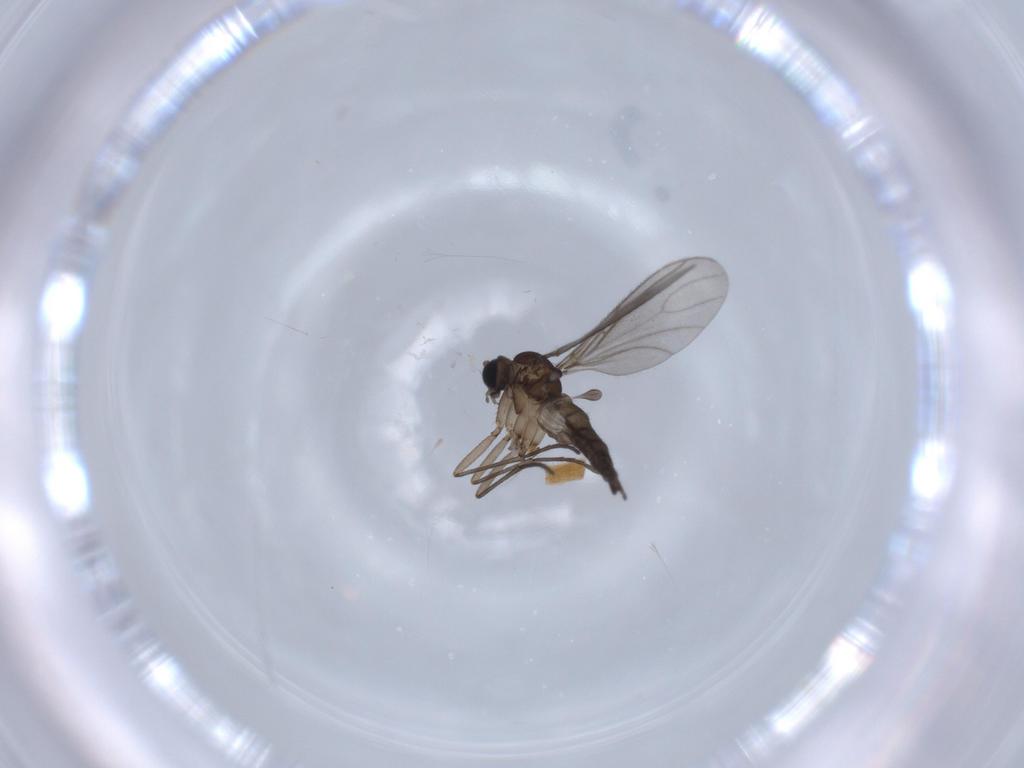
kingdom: Animalia
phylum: Arthropoda
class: Insecta
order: Diptera
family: Sciaridae
